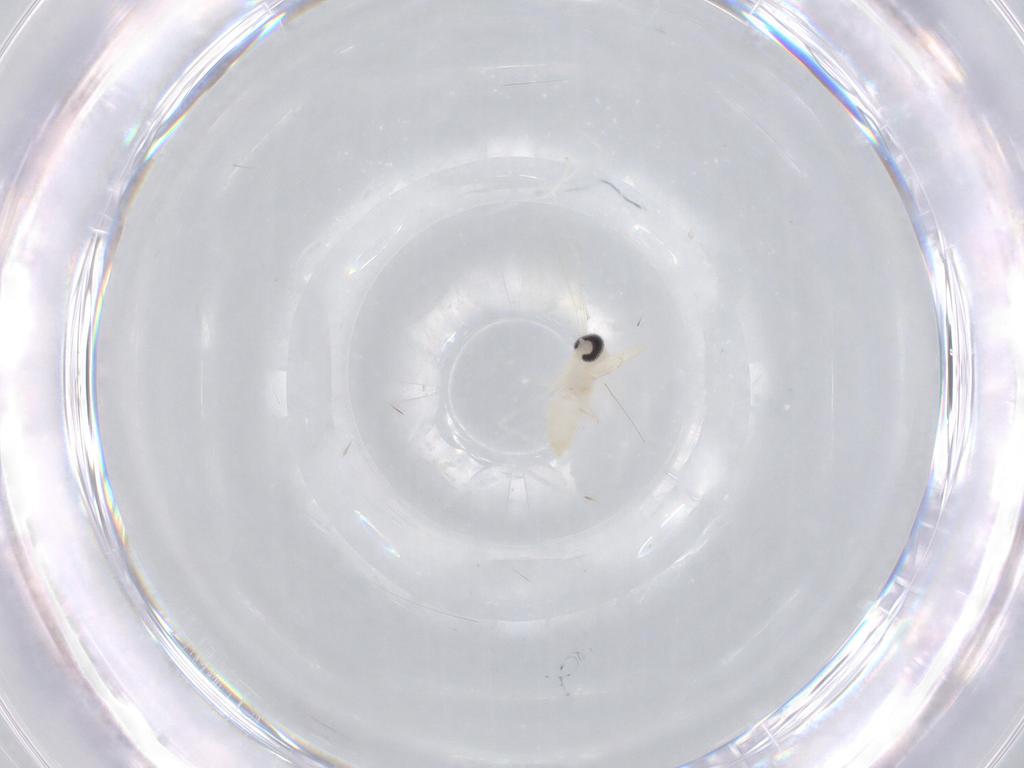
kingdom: Animalia
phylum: Arthropoda
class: Insecta
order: Diptera
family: Cecidomyiidae
